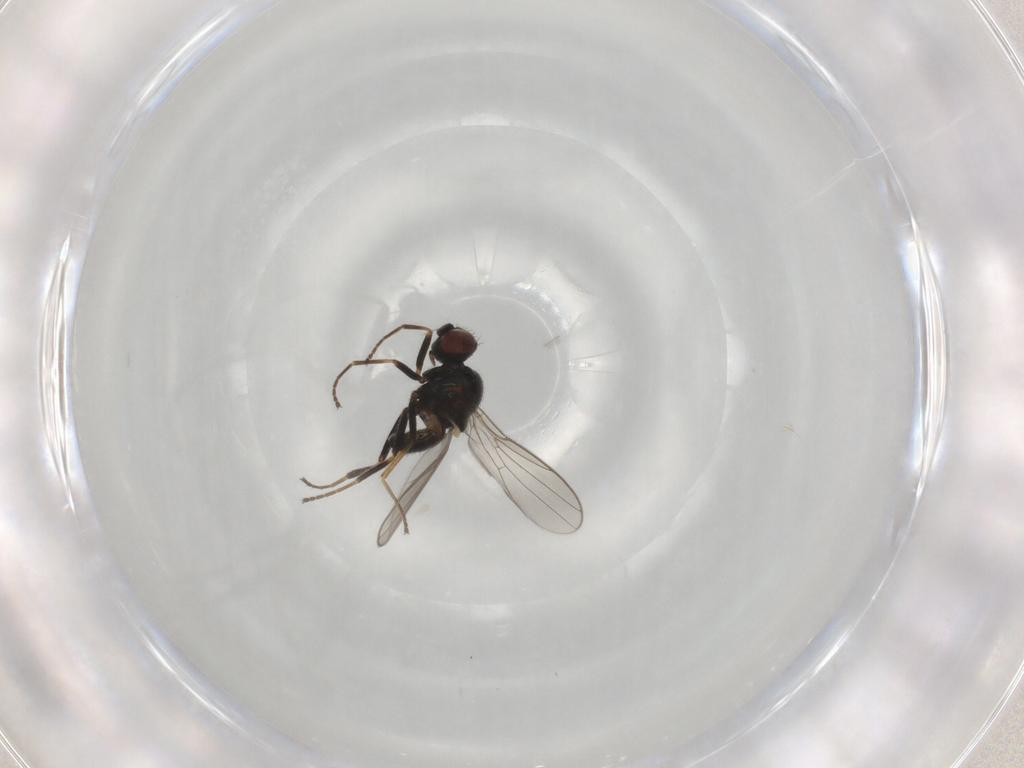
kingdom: Animalia
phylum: Arthropoda
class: Insecta
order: Diptera
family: Chloropidae
